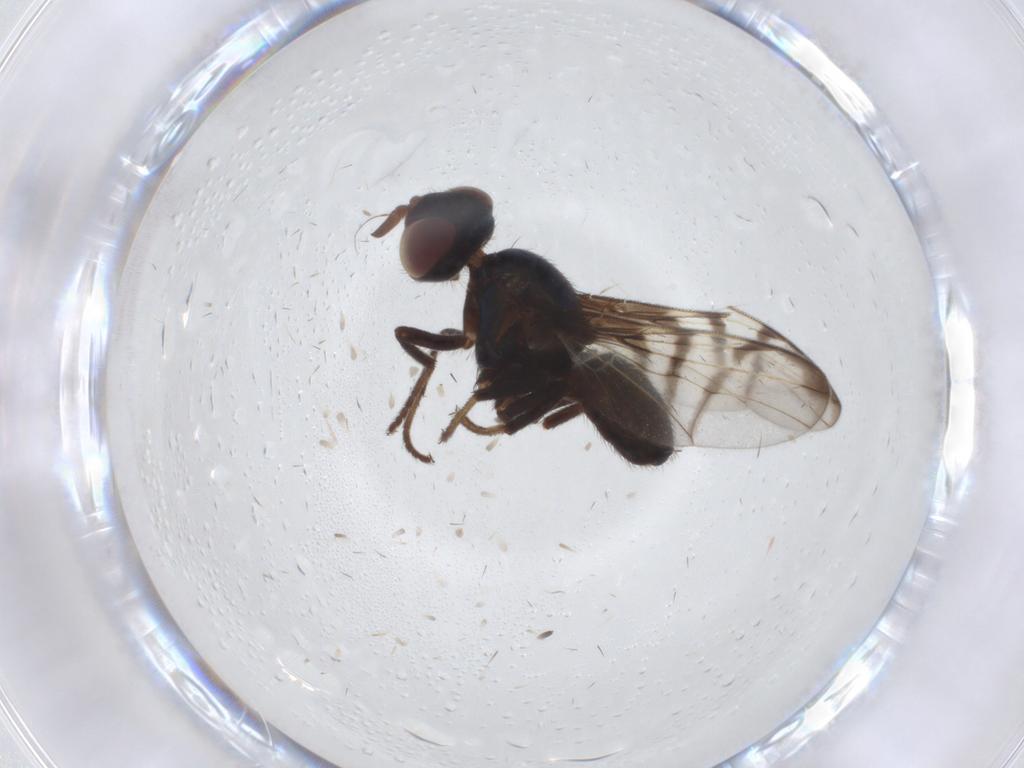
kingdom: Animalia
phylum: Arthropoda
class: Insecta
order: Diptera
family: Platystomatidae
